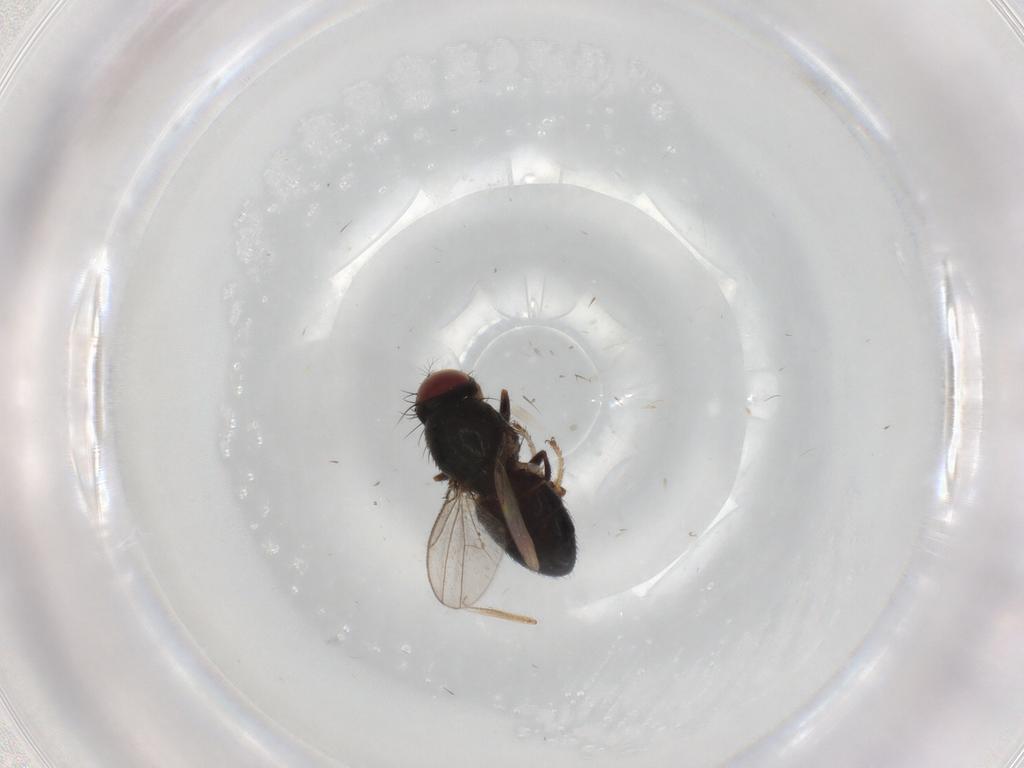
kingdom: Animalia
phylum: Arthropoda
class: Insecta
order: Diptera
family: Ephydridae
